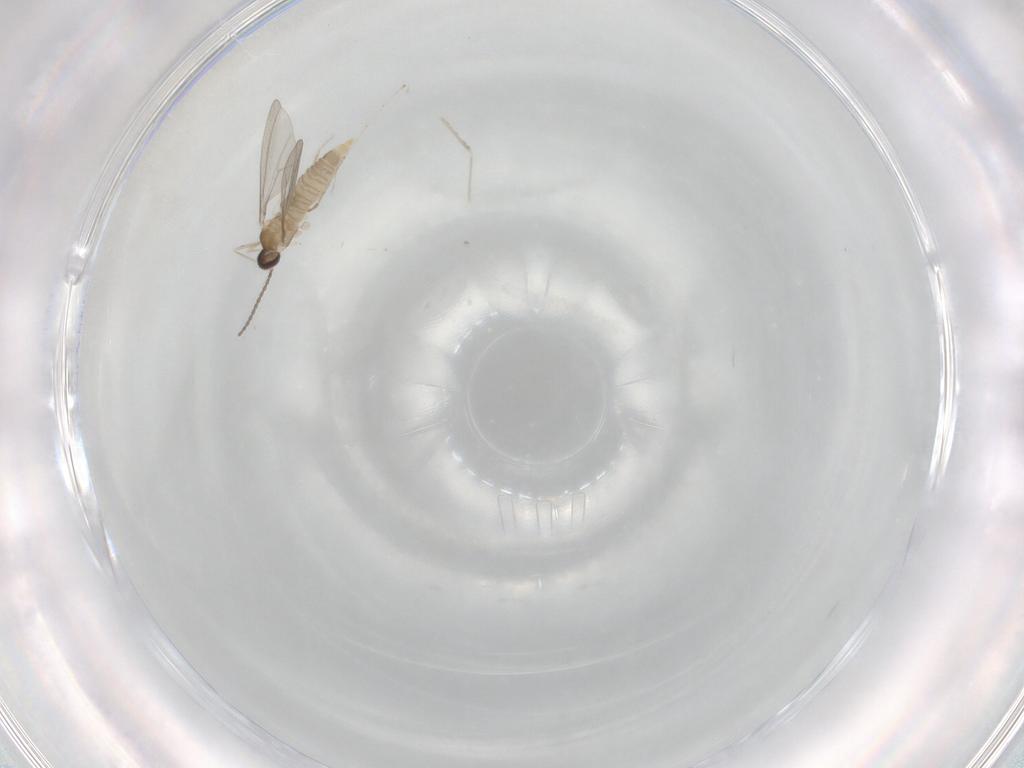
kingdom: Animalia
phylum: Arthropoda
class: Insecta
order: Diptera
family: Cecidomyiidae
